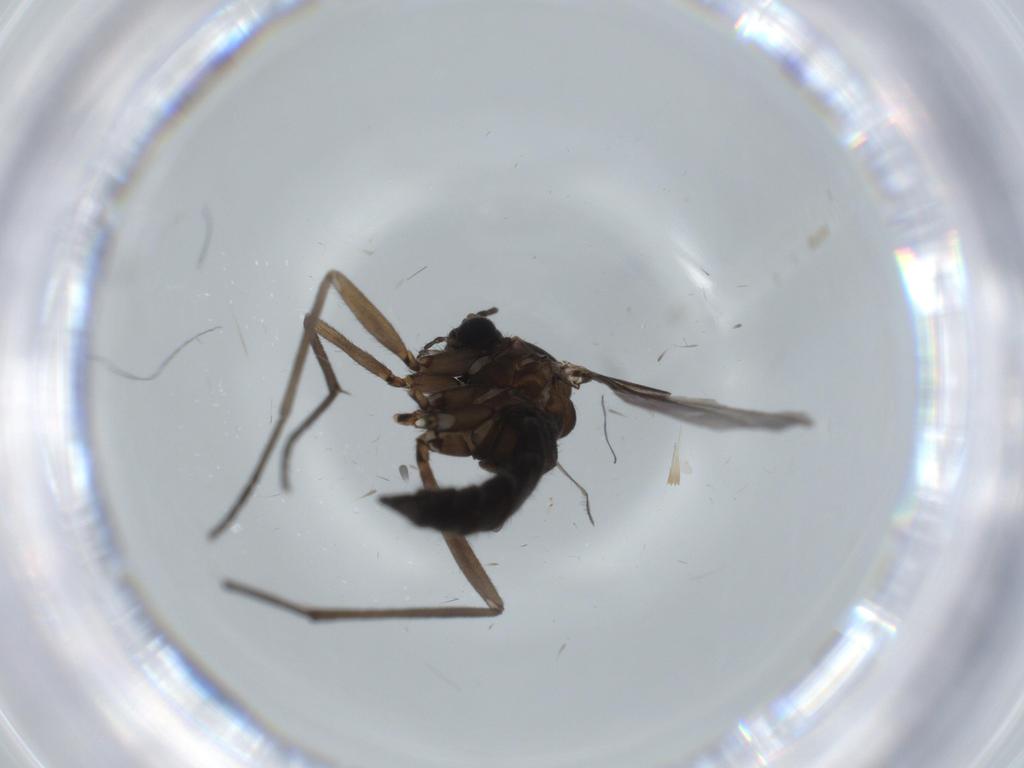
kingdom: Animalia
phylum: Arthropoda
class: Insecta
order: Diptera
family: Sciaridae
